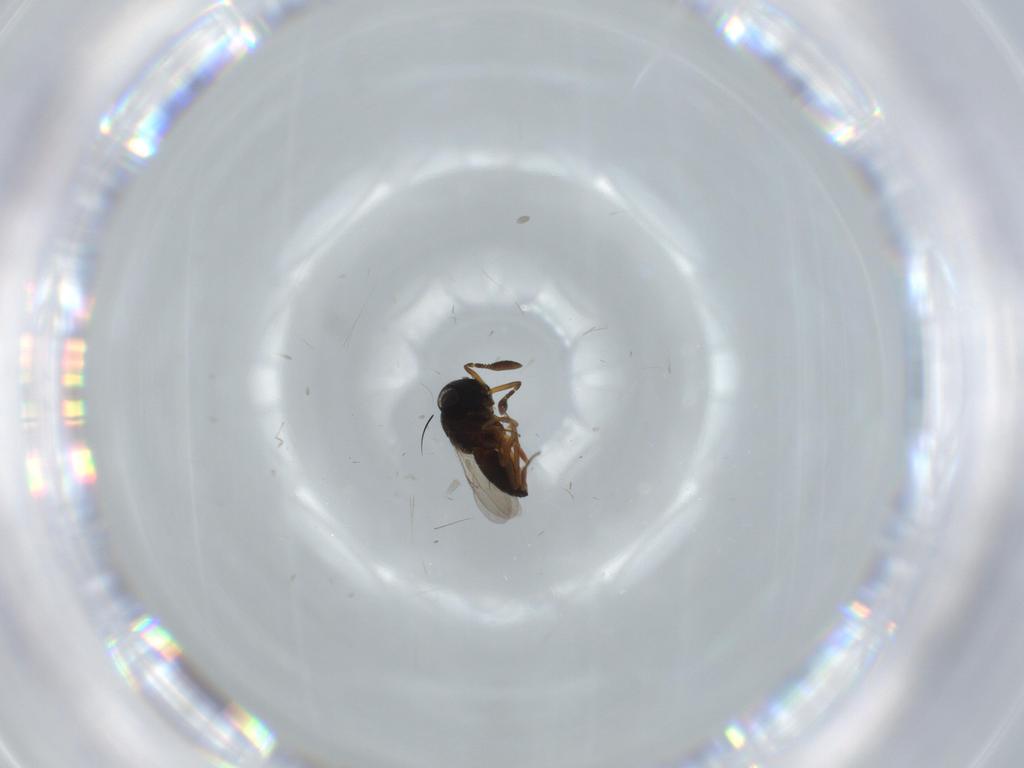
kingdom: Animalia
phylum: Arthropoda
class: Insecta
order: Hymenoptera
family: Scelionidae
